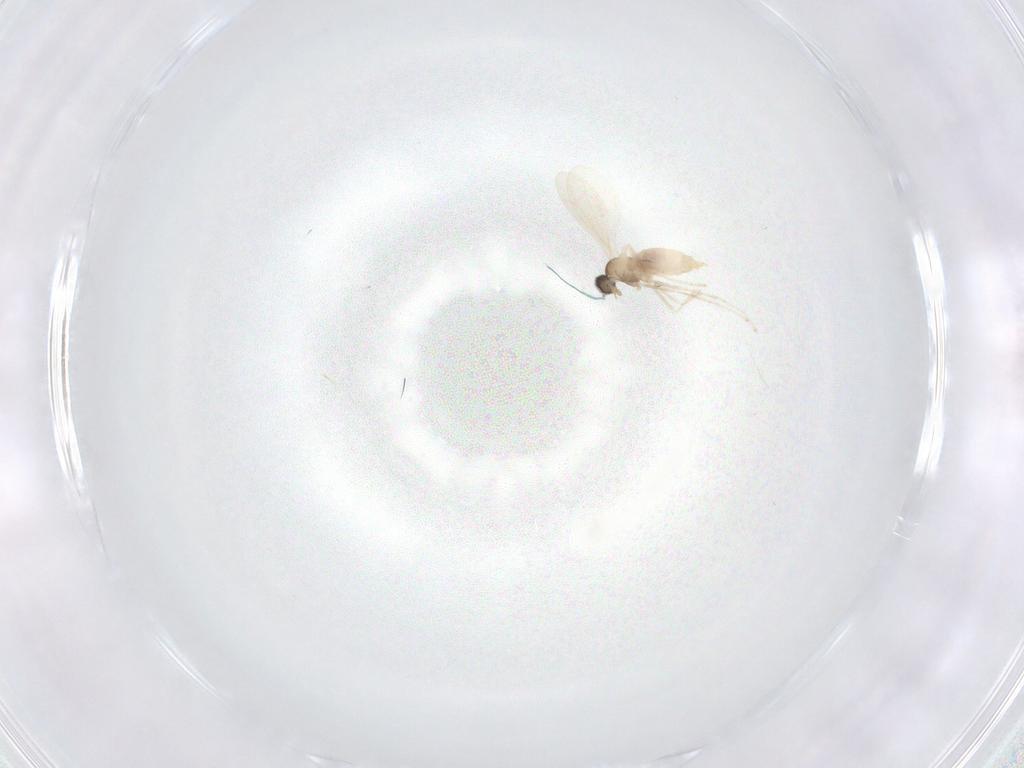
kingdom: Animalia
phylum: Arthropoda
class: Insecta
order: Diptera
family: Cecidomyiidae
